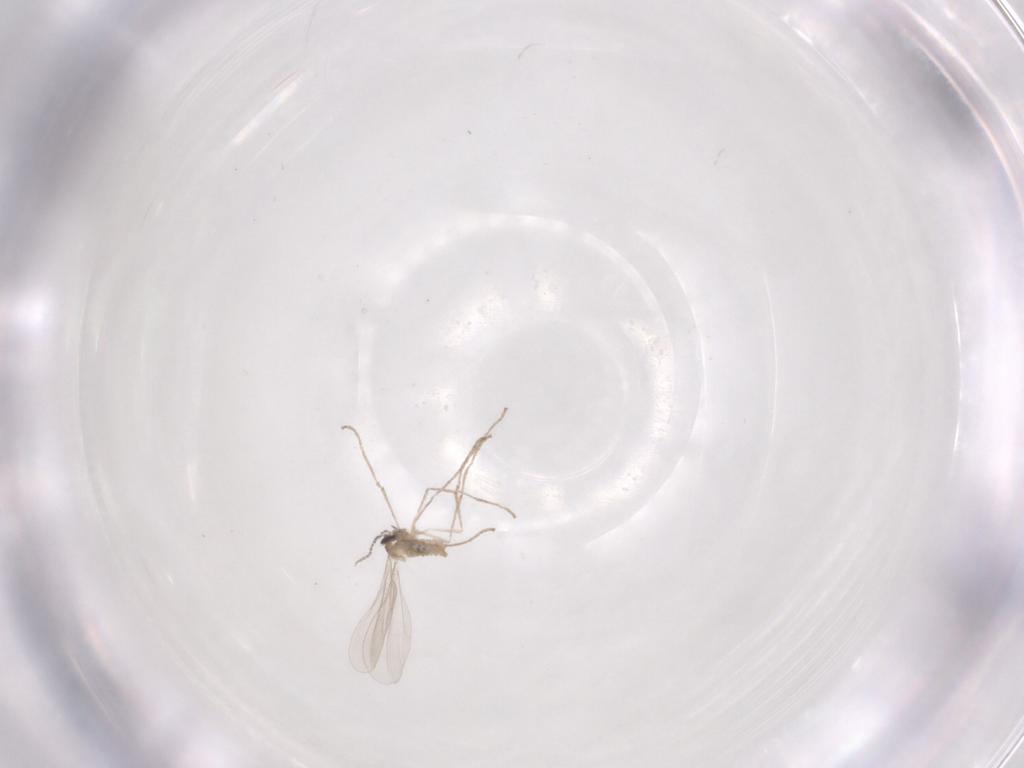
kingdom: Animalia
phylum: Arthropoda
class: Insecta
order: Diptera
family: Cecidomyiidae
